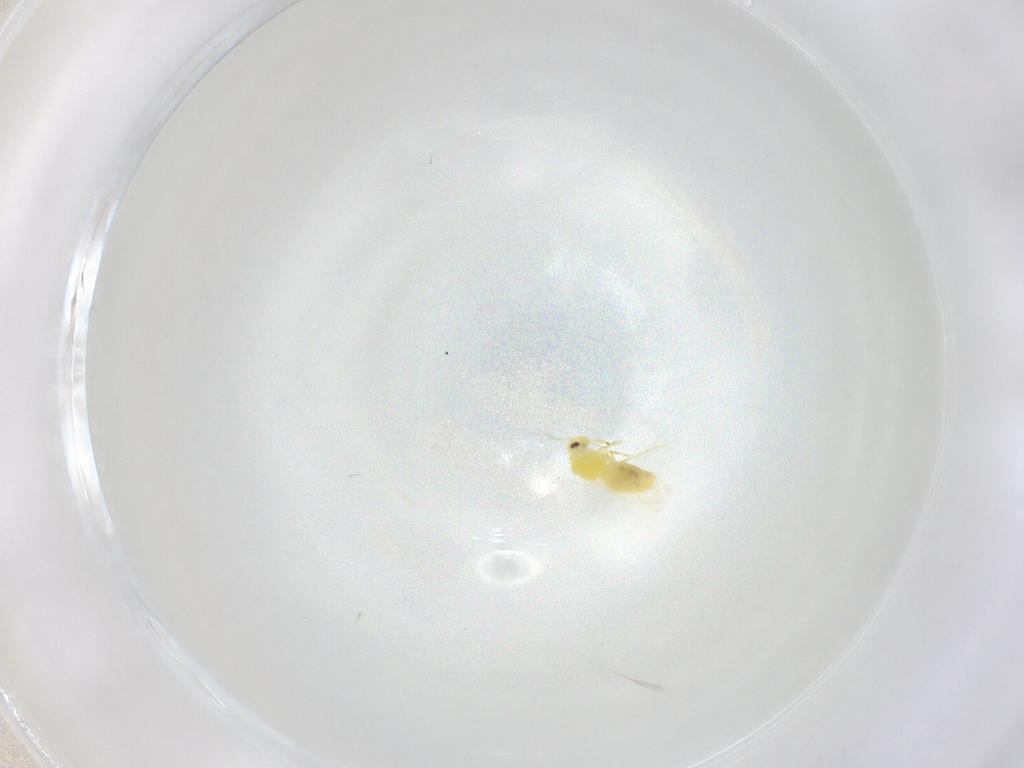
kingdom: Animalia
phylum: Arthropoda
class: Insecta
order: Hemiptera
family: Aleyrodidae
